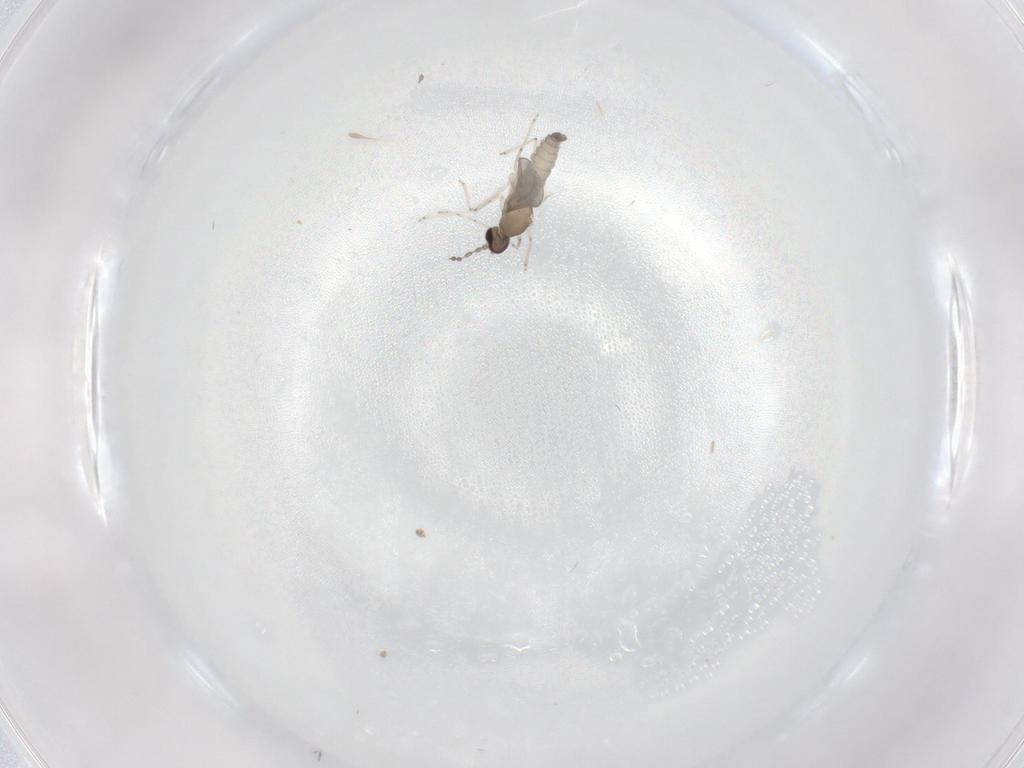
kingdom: Animalia
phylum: Arthropoda
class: Insecta
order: Diptera
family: Cecidomyiidae
